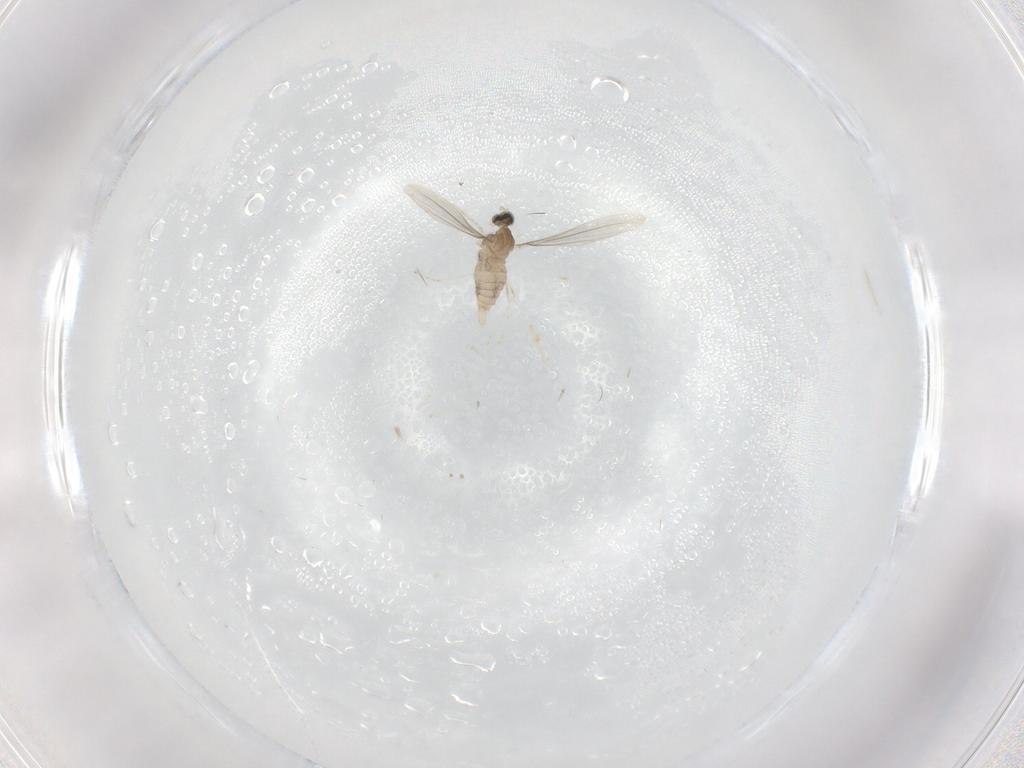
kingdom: Animalia
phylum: Arthropoda
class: Insecta
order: Diptera
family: Cecidomyiidae
